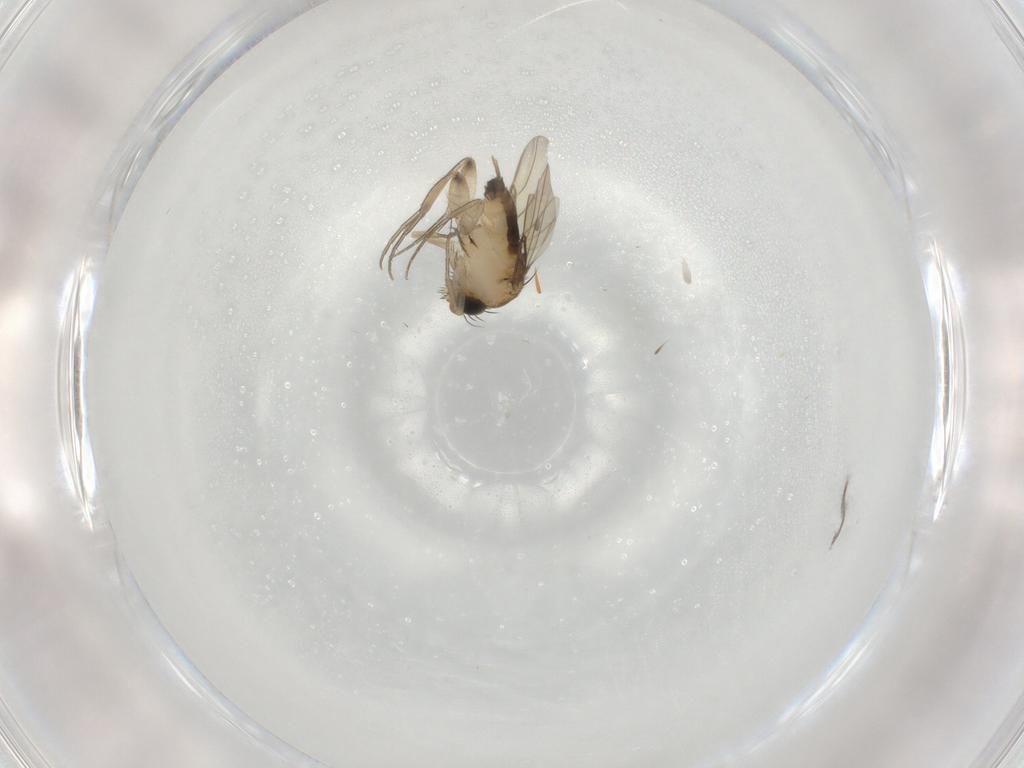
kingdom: Animalia
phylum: Arthropoda
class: Insecta
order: Diptera
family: Phoridae
